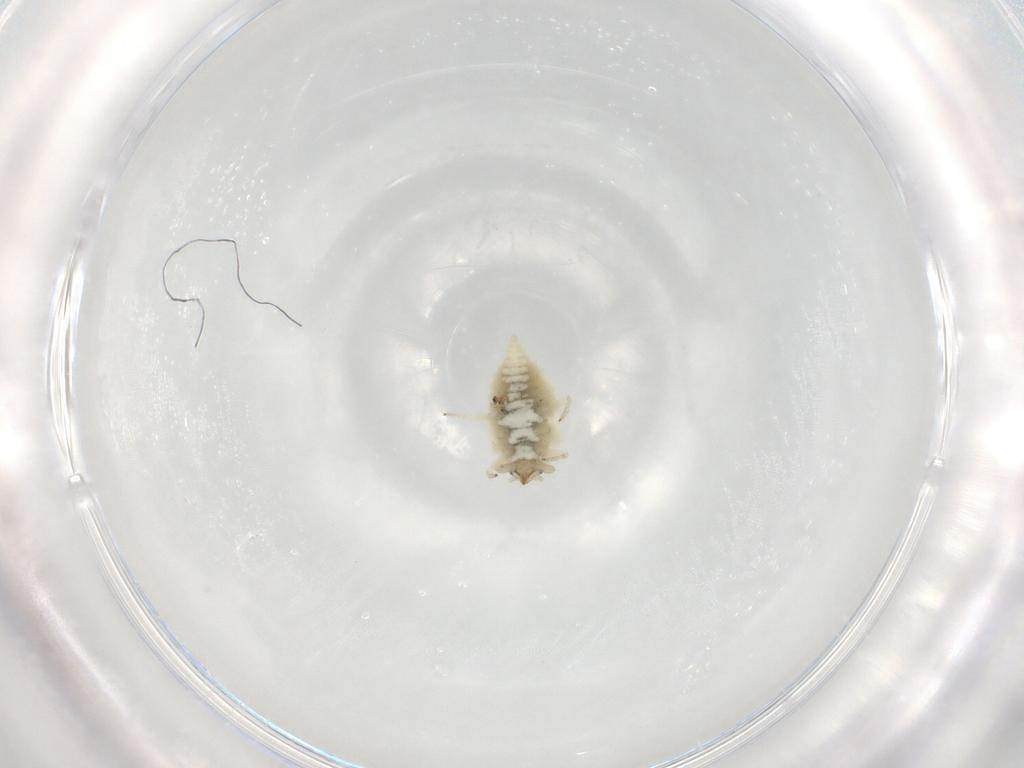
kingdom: Animalia
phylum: Arthropoda
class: Insecta
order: Neuroptera
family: Coniopterygidae
